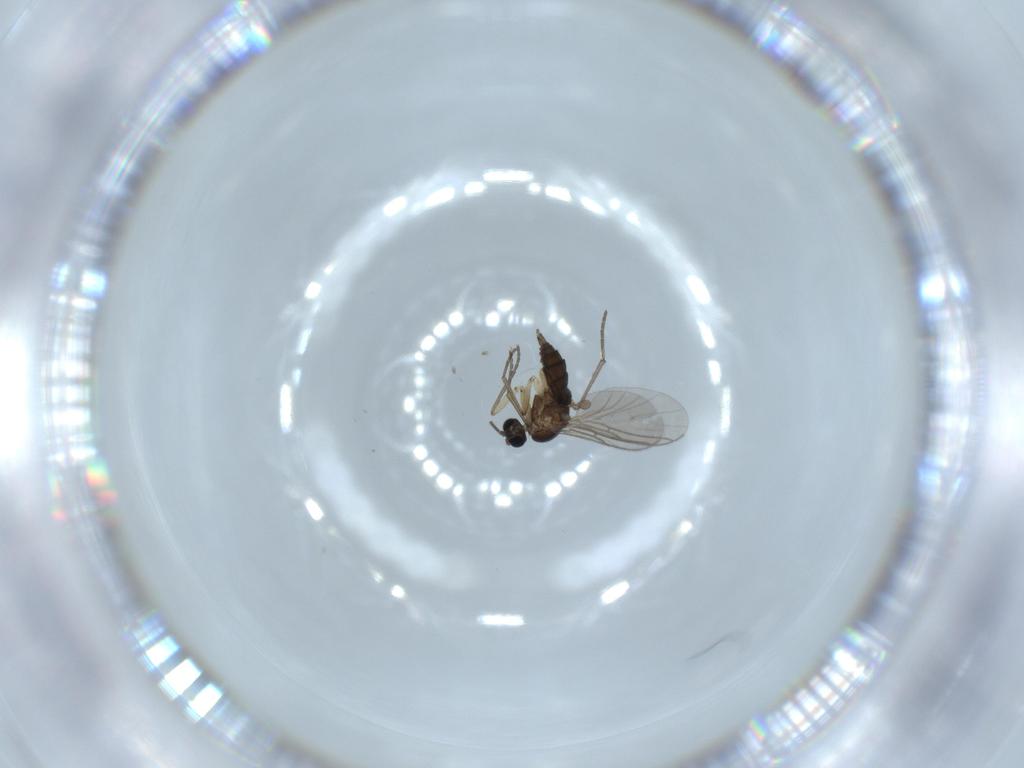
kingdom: Animalia
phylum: Arthropoda
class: Insecta
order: Diptera
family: Sciaridae
